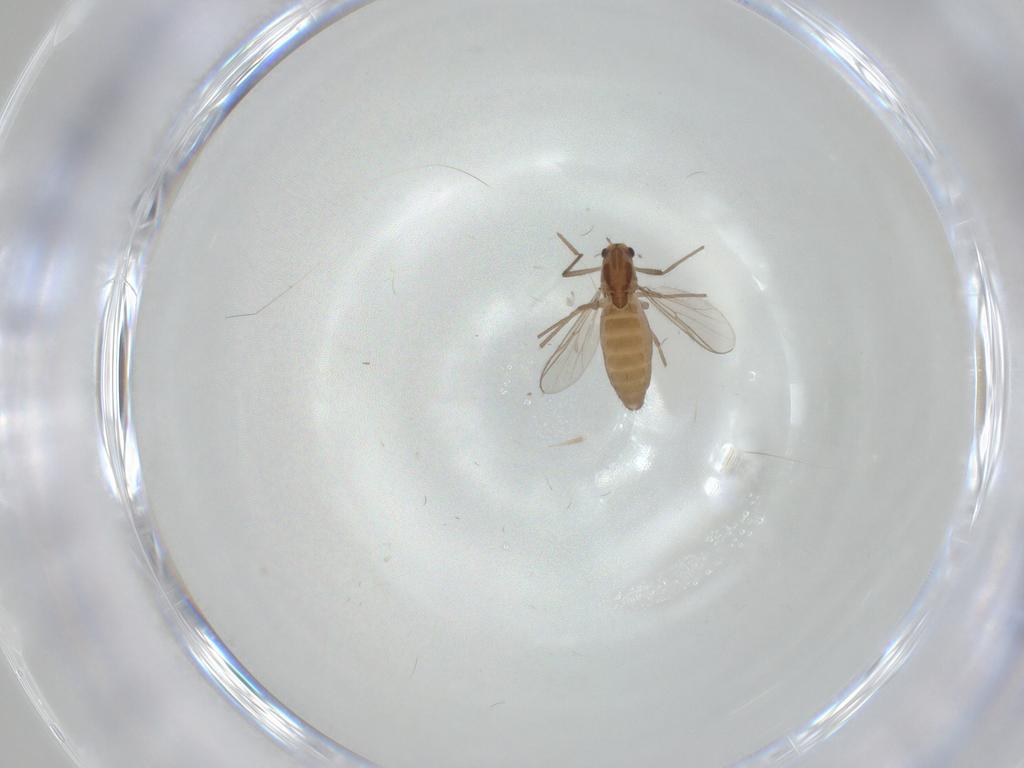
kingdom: Animalia
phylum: Arthropoda
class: Insecta
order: Diptera
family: Chironomidae
